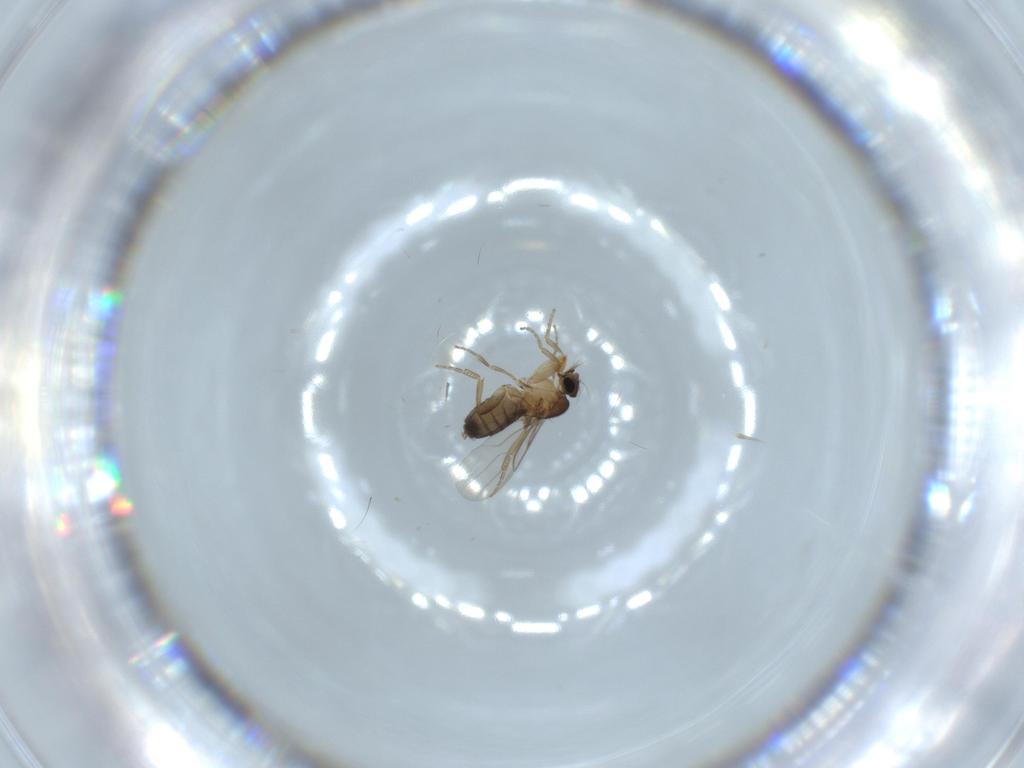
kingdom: Animalia
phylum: Arthropoda
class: Insecta
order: Diptera
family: Phoridae
